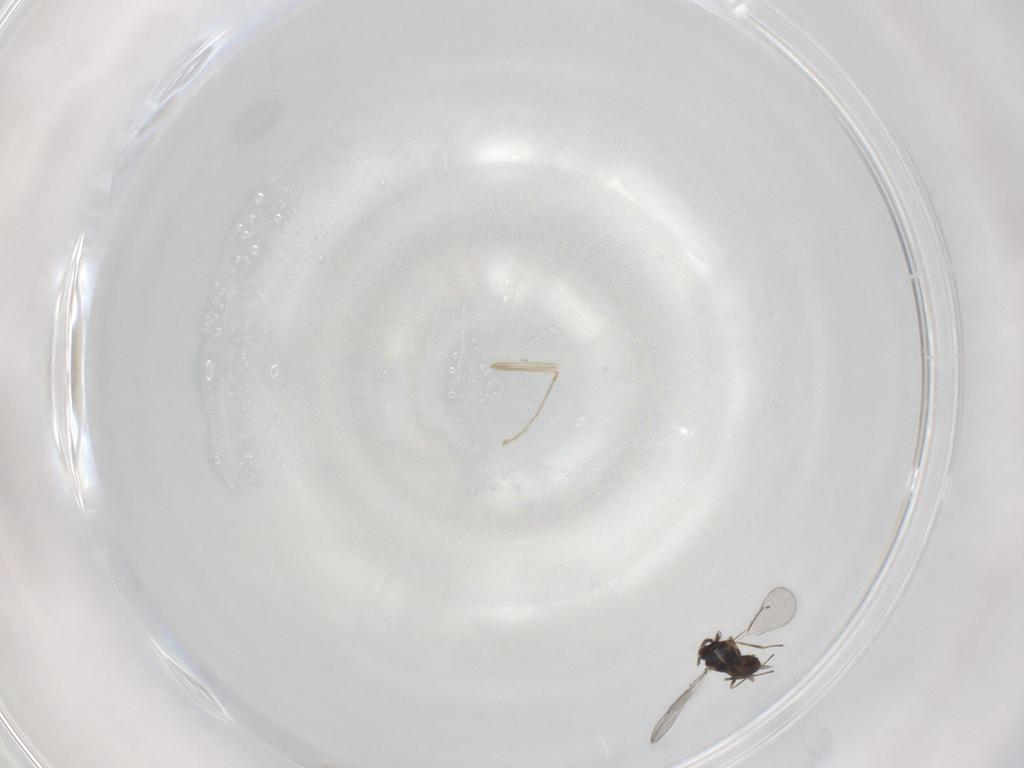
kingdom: Animalia
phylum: Arthropoda
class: Insecta
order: Hymenoptera
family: Eulophidae
